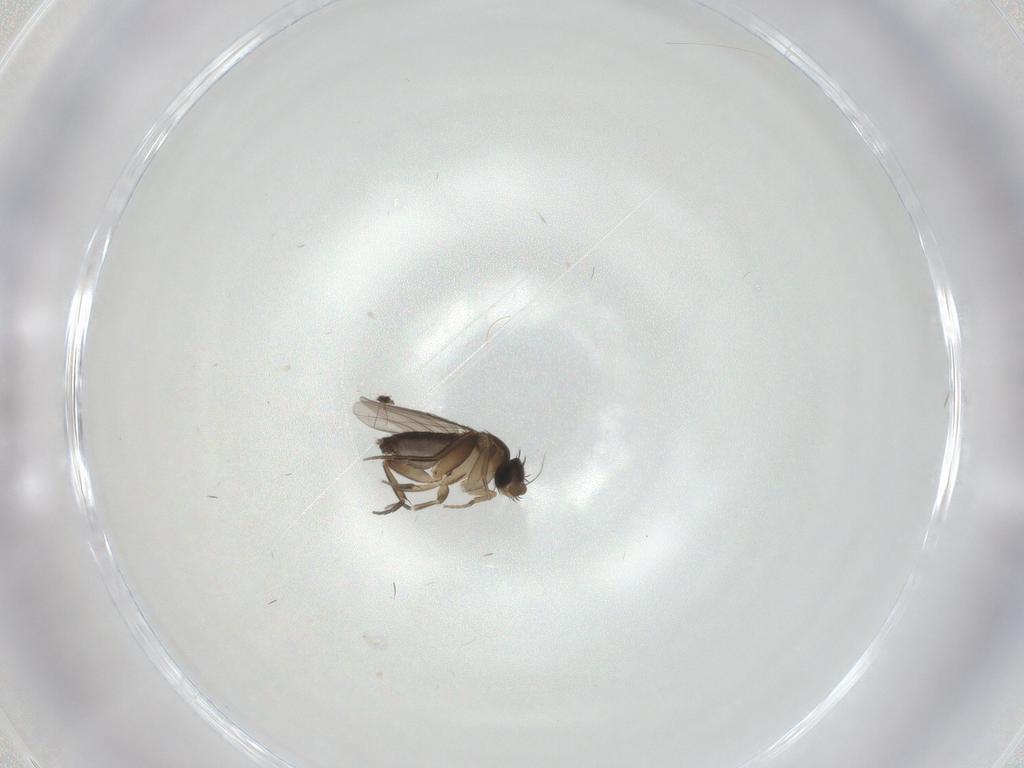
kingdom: Animalia
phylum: Arthropoda
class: Insecta
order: Diptera
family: Phoridae
